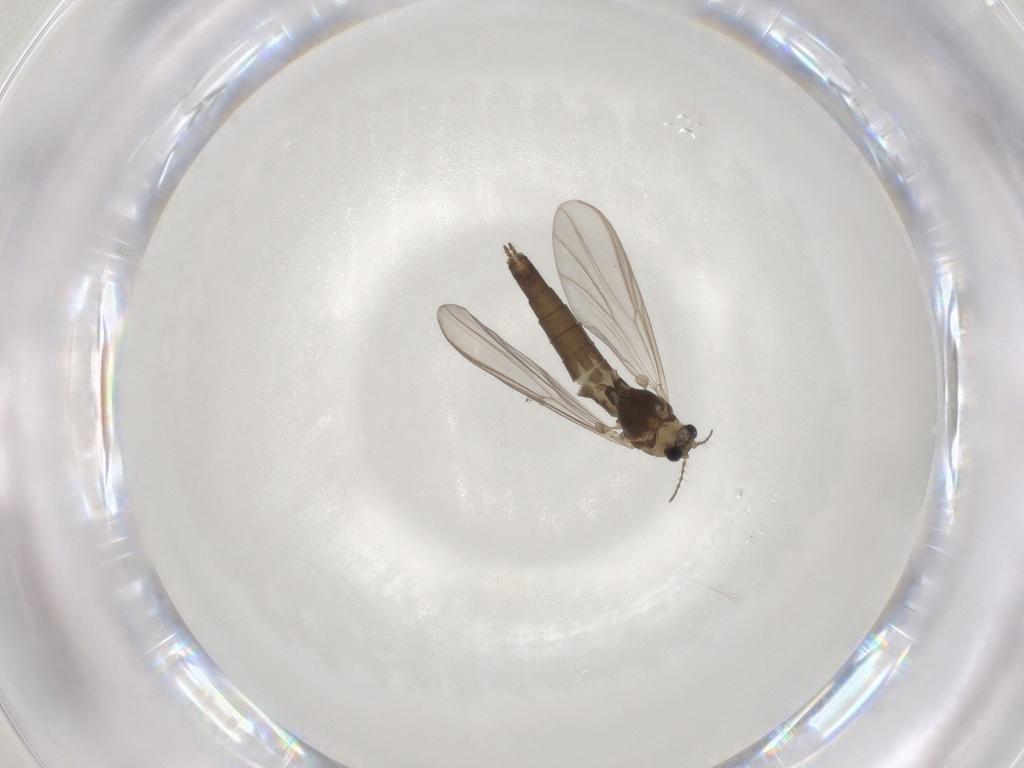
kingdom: Animalia
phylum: Arthropoda
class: Insecta
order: Diptera
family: Chironomidae
